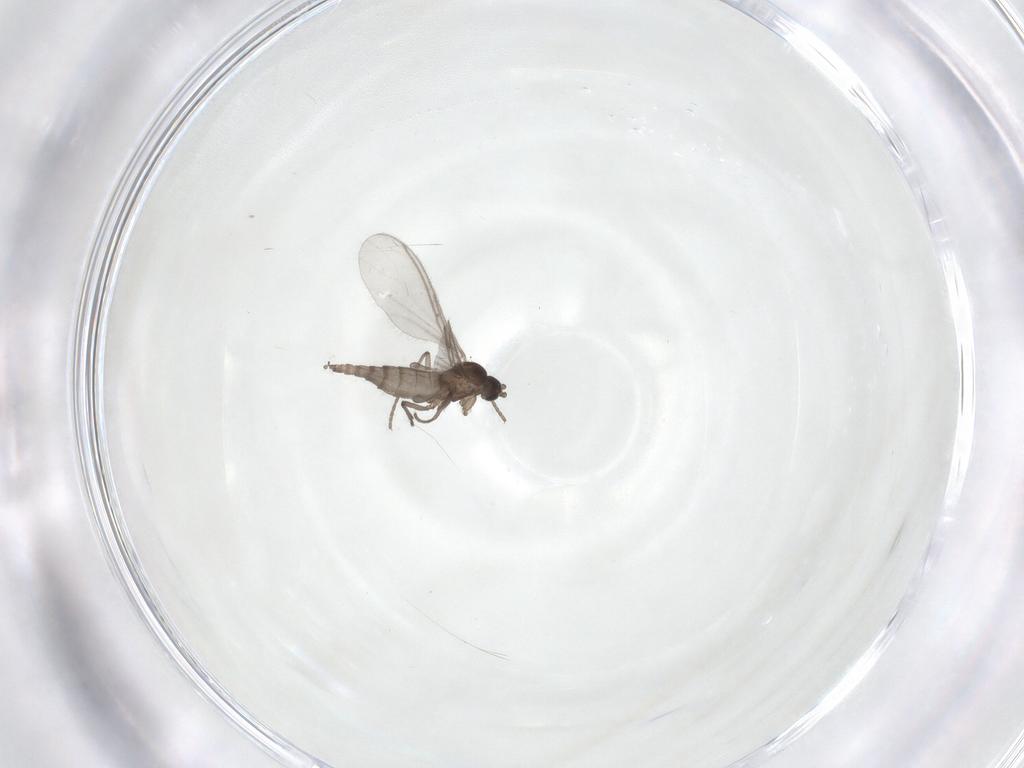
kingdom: Animalia
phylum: Arthropoda
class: Insecta
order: Diptera
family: Sciaridae
